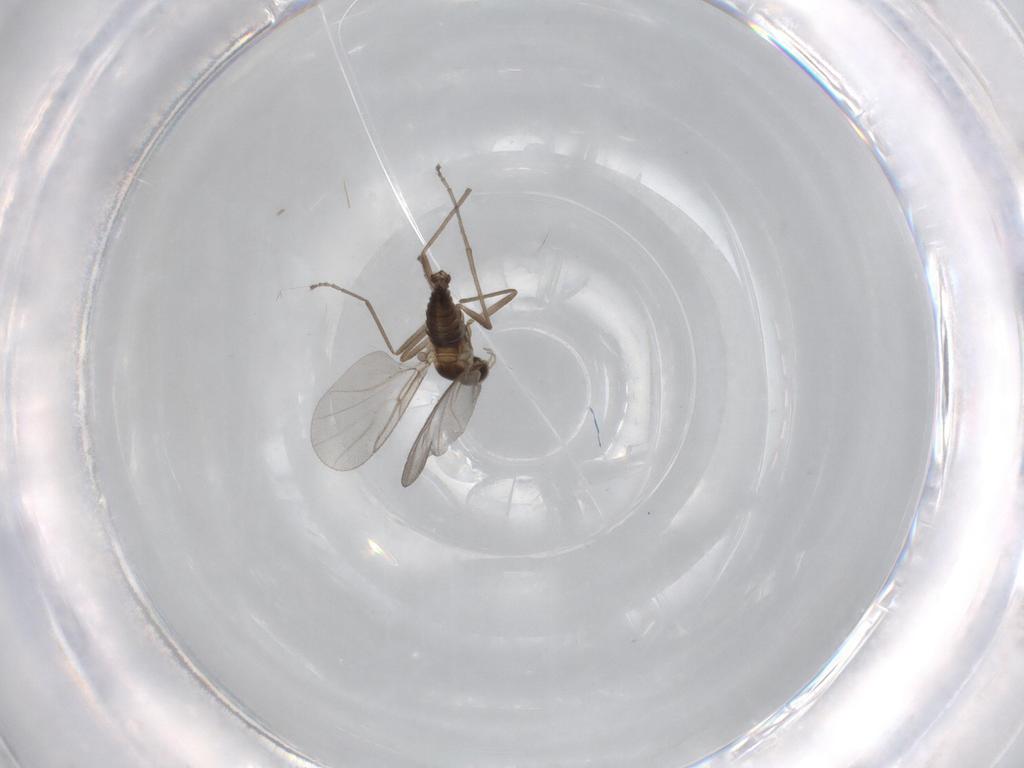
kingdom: Animalia
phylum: Arthropoda
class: Insecta
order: Diptera
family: Cecidomyiidae
